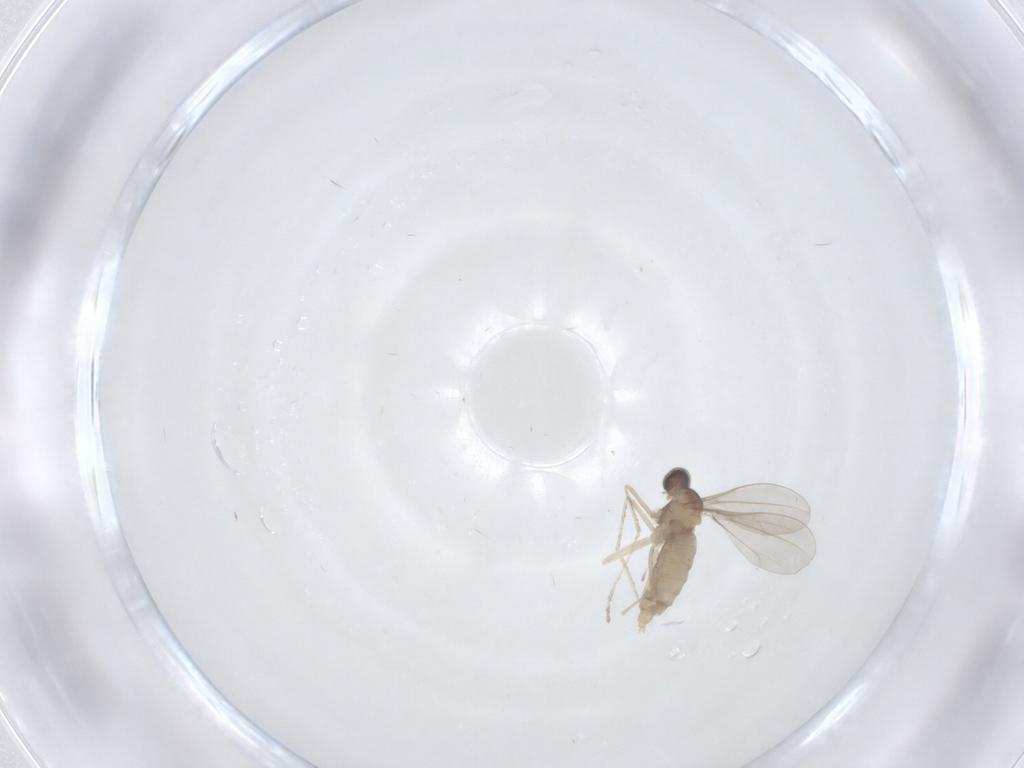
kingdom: Animalia
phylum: Arthropoda
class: Insecta
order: Diptera
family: Cecidomyiidae
